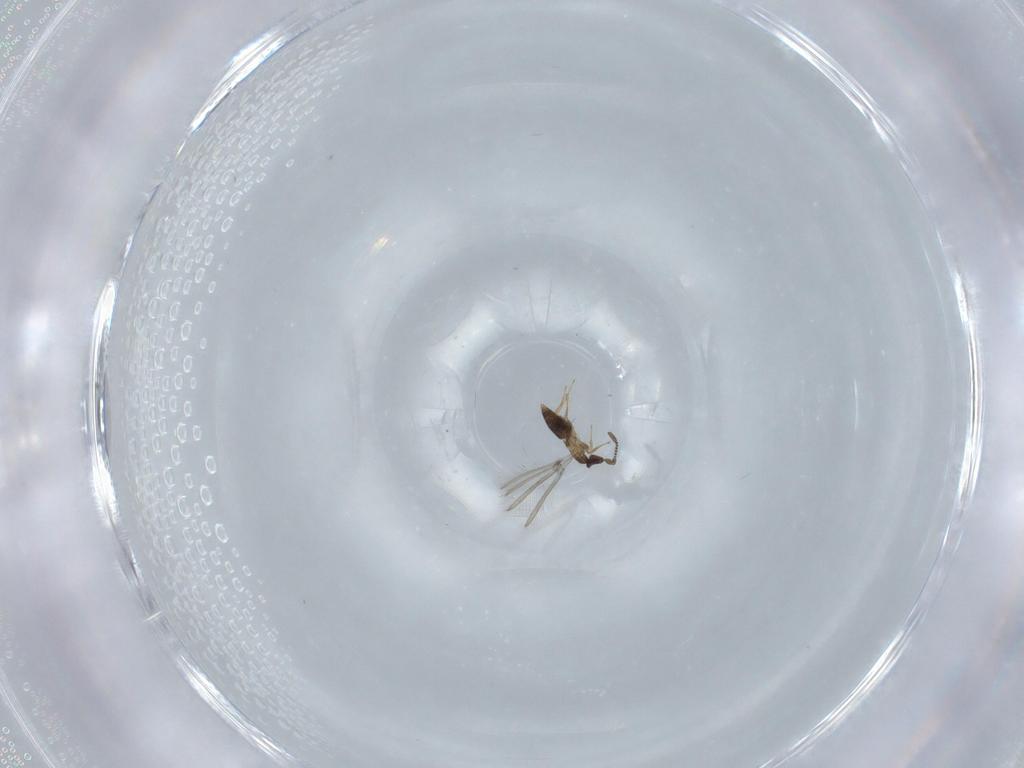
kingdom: Animalia
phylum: Arthropoda
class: Insecta
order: Hymenoptera
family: Mymaridae
